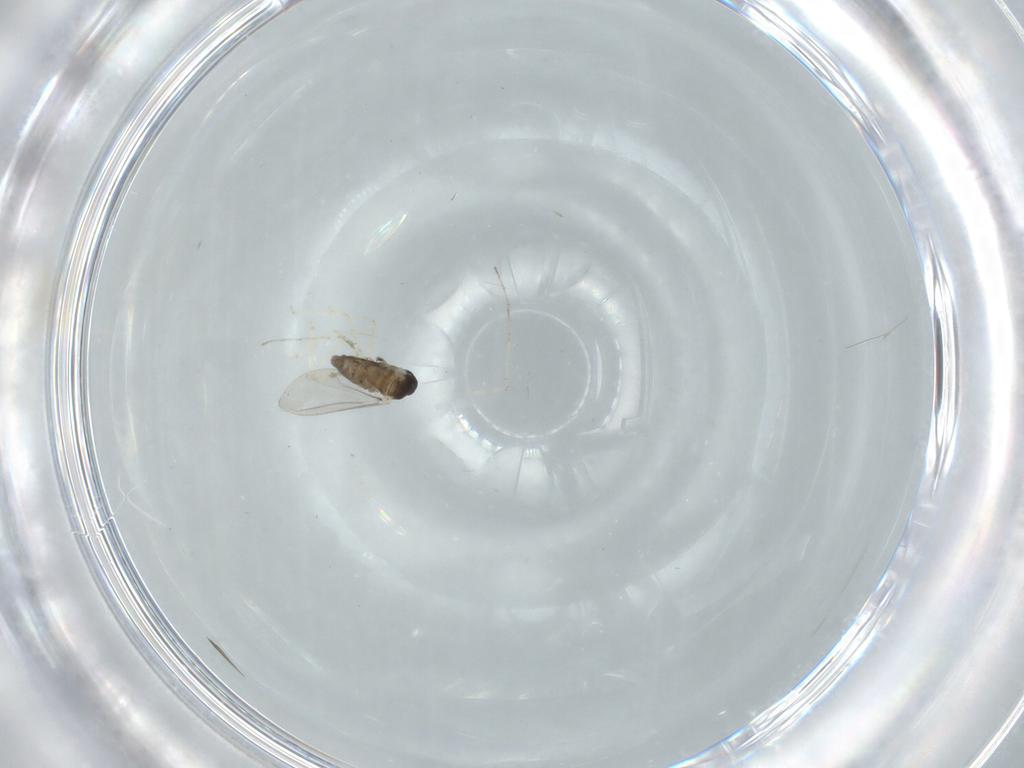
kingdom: Animalia
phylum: Arthropoda
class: Insecta
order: Diptera
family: Cecidomyiidae
